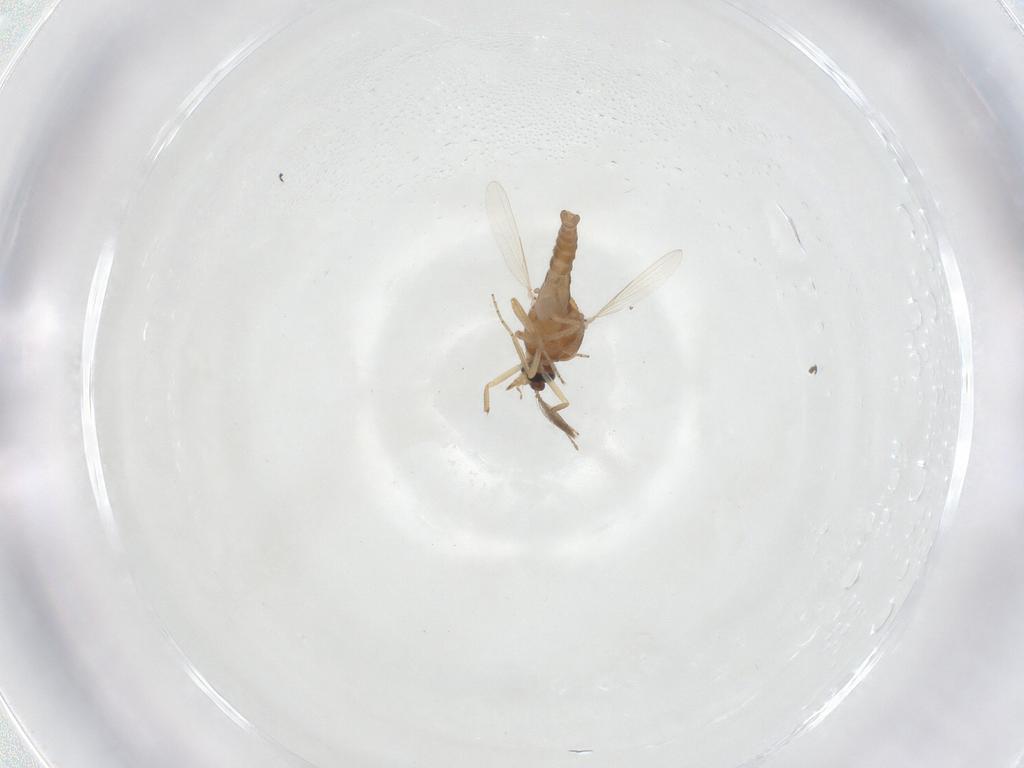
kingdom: Animalia
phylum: Arthropoda
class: Insecta
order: Diptera
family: Ceratopogonidae
